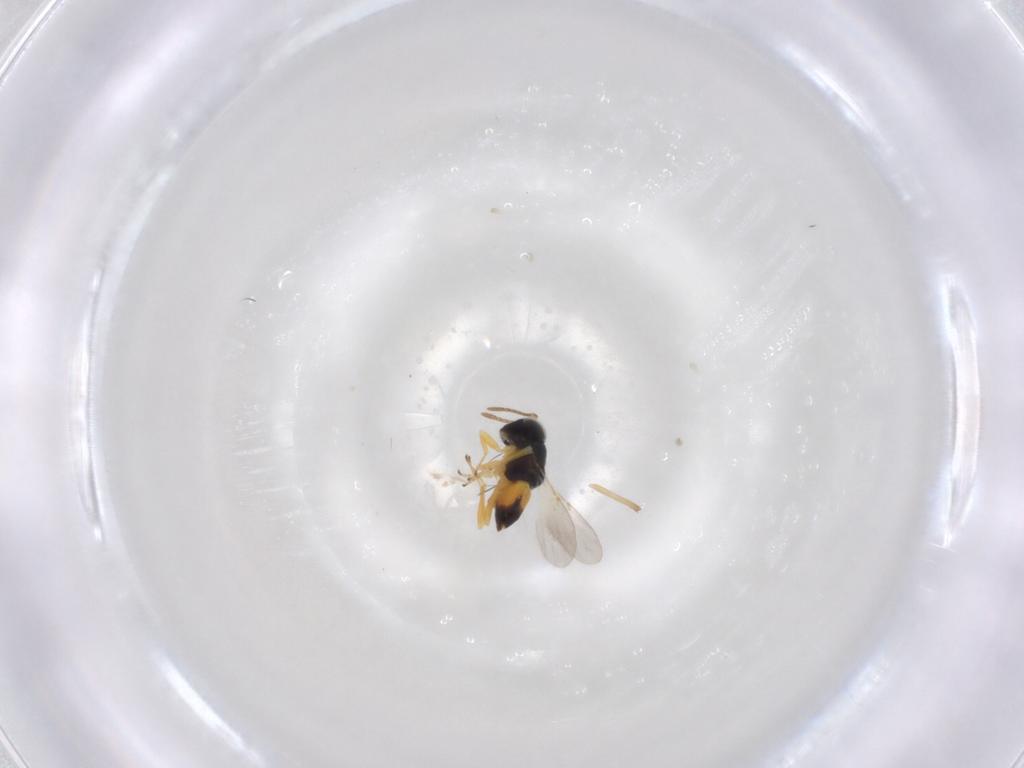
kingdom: Animalia
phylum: Arthropoda
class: Insecta
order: Hymenoptera
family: Encyrtidae
